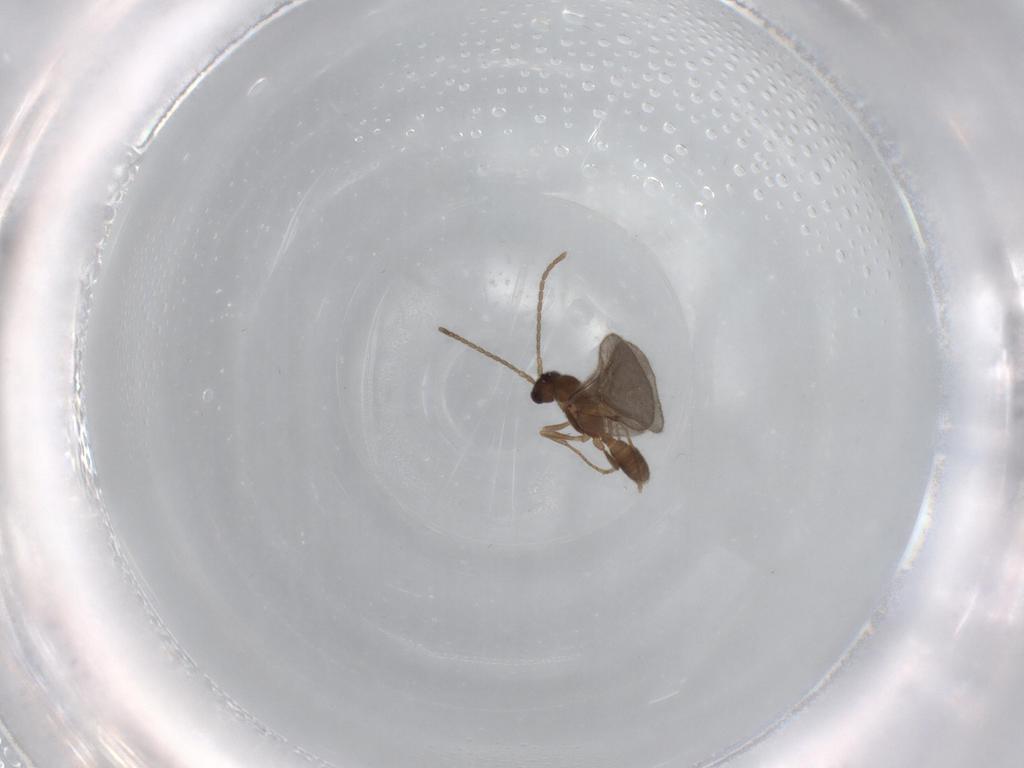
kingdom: Animalia
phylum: Arthropoda
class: Insecta
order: Hymenoptera
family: Formicidae
